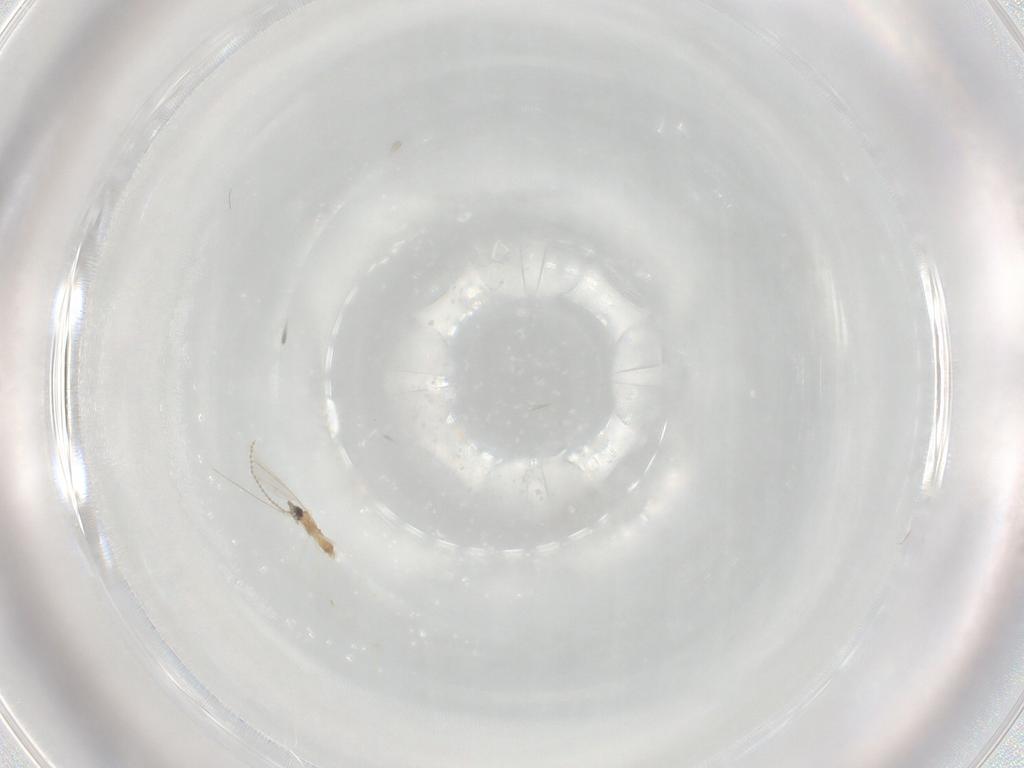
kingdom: Animalia
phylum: Arthropoda
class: Insecta
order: Diptera
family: Cecidomyiidae
